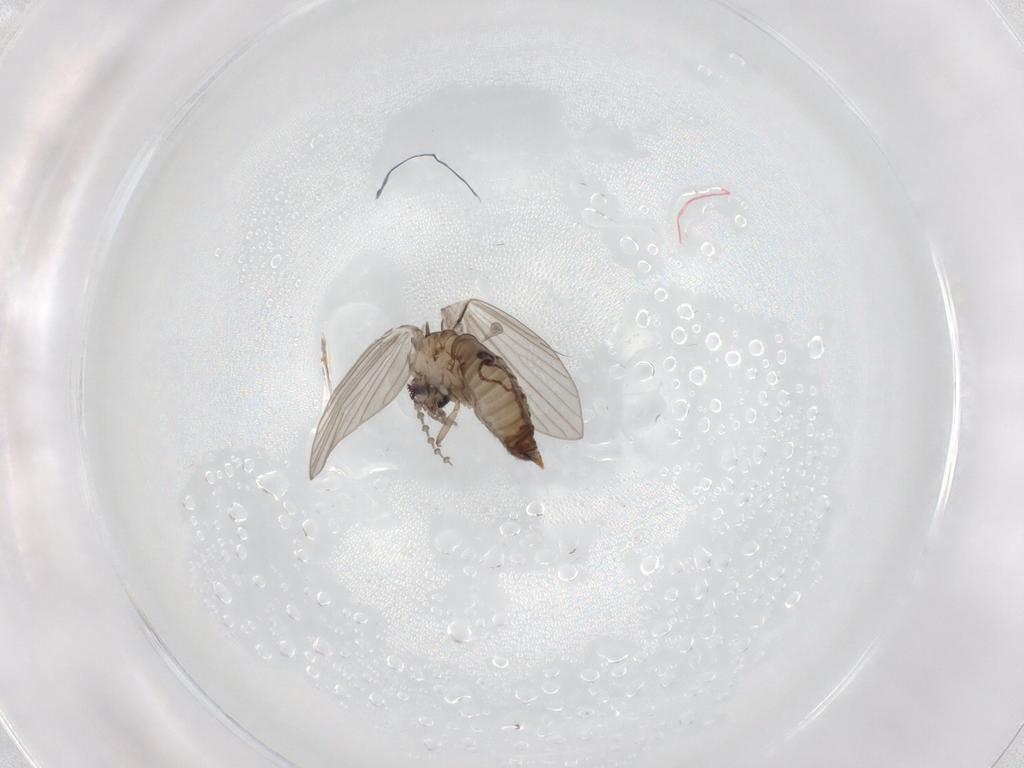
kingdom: Animalia
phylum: Arthropoda
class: Insecta
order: Diptera
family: Psychodidae
